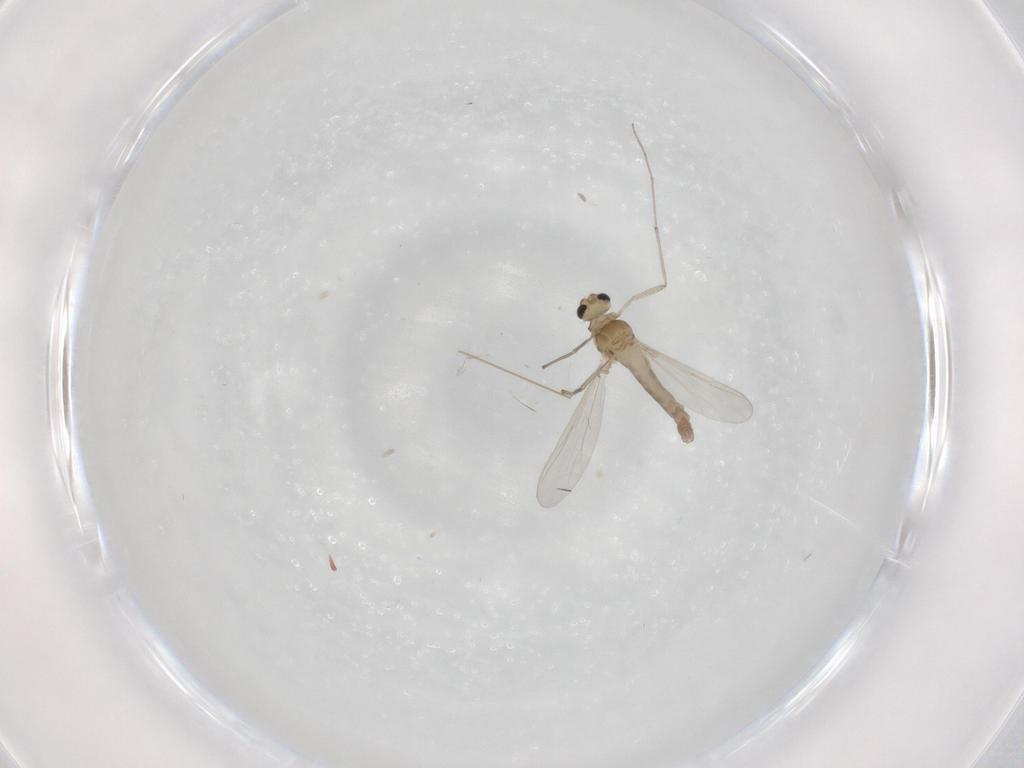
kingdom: Animalia
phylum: Arthropoda
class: Insecta
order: Diptera
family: Chironomidae
